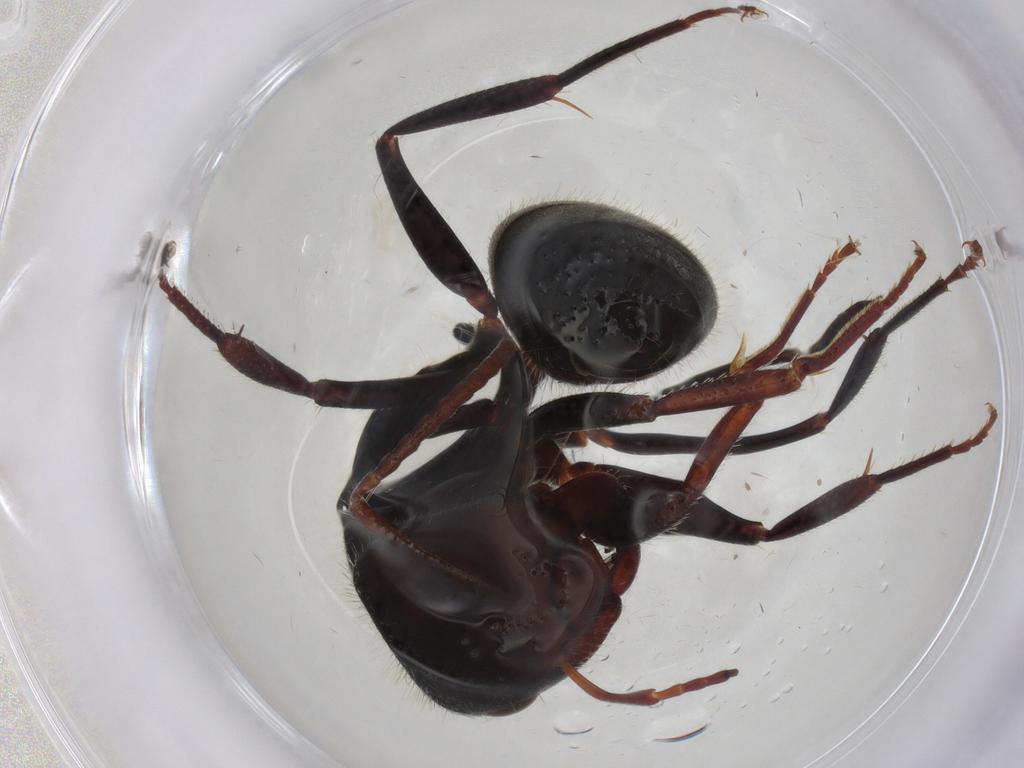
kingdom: Animalia
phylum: Arthropoda
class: Insecta
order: Hymenoptera
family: Formicidae
